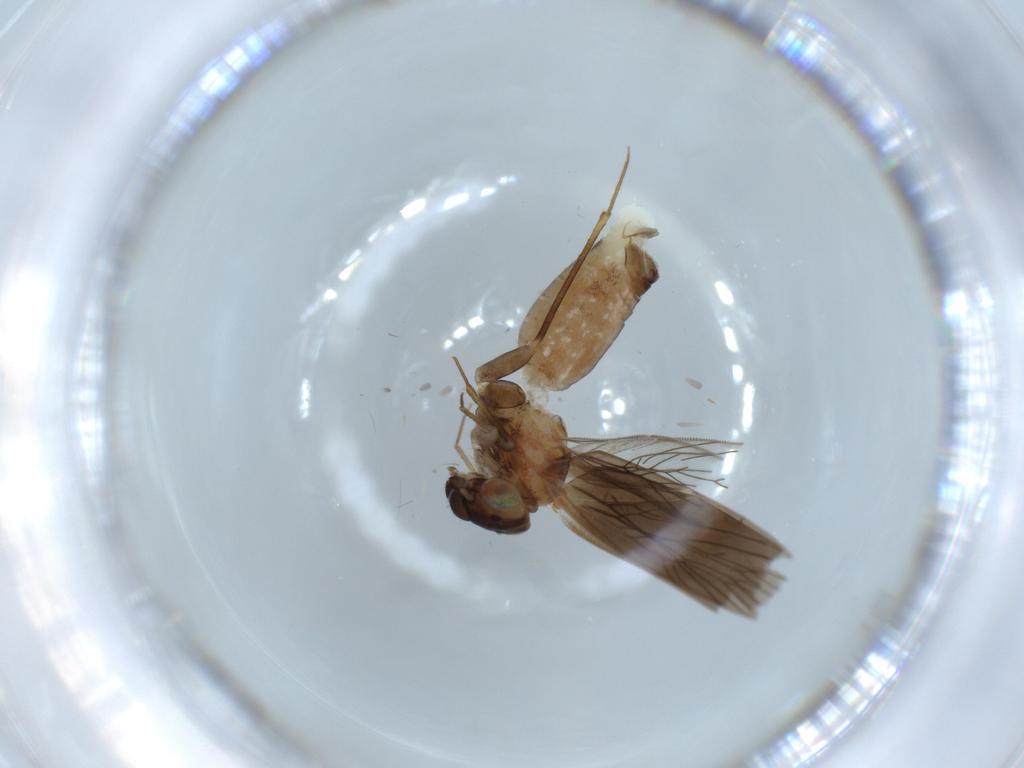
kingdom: Animalia
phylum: Arthropoda
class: Insecta
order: Psocodea
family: Lepidopsocidae
